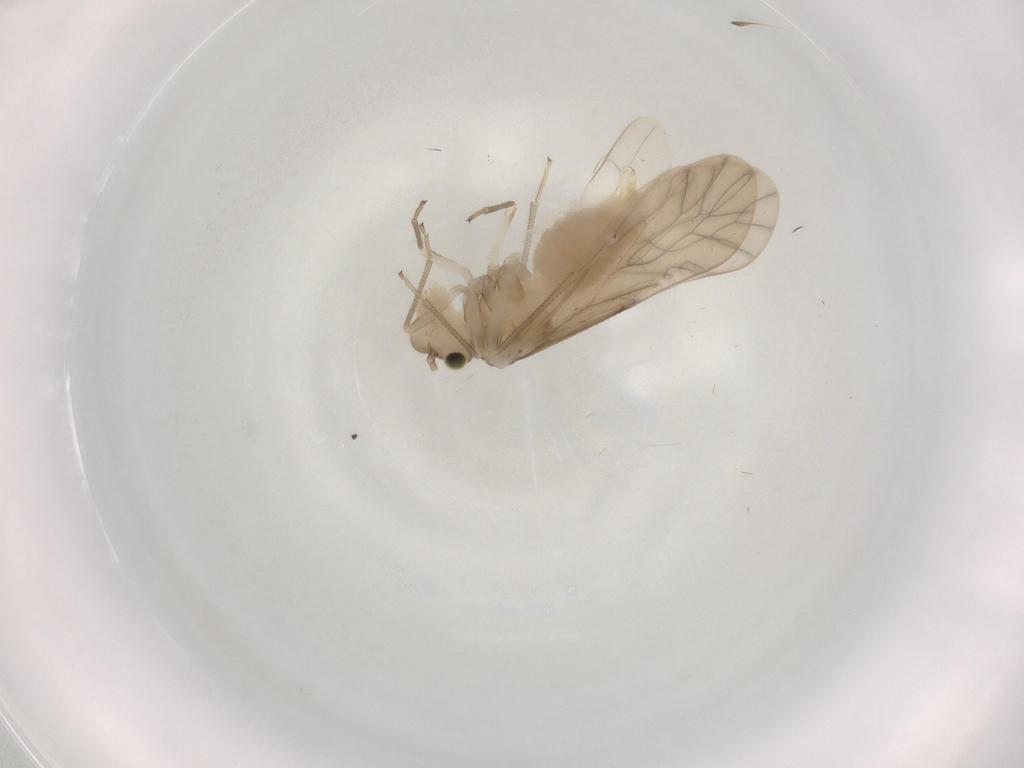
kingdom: Animalia
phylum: Arthropoda
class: Insecta
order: Psocodea
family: Caeciliusidae
